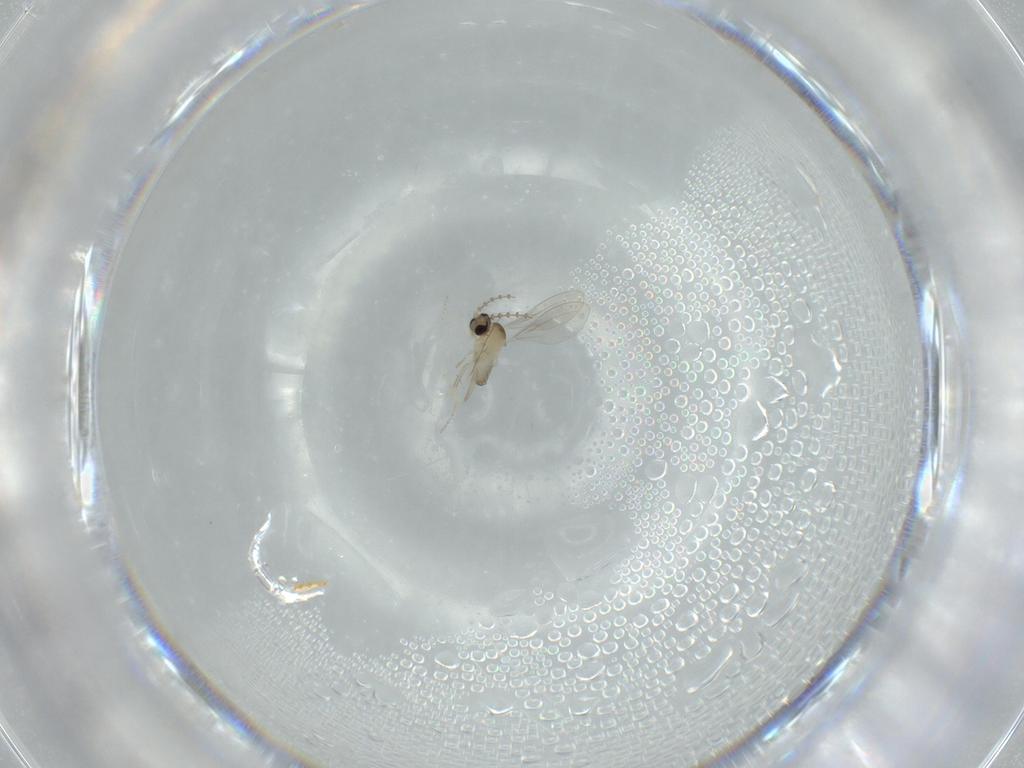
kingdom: Animalia
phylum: Arthropoda
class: Insecta
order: Diptera
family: Cecidomyiidae
